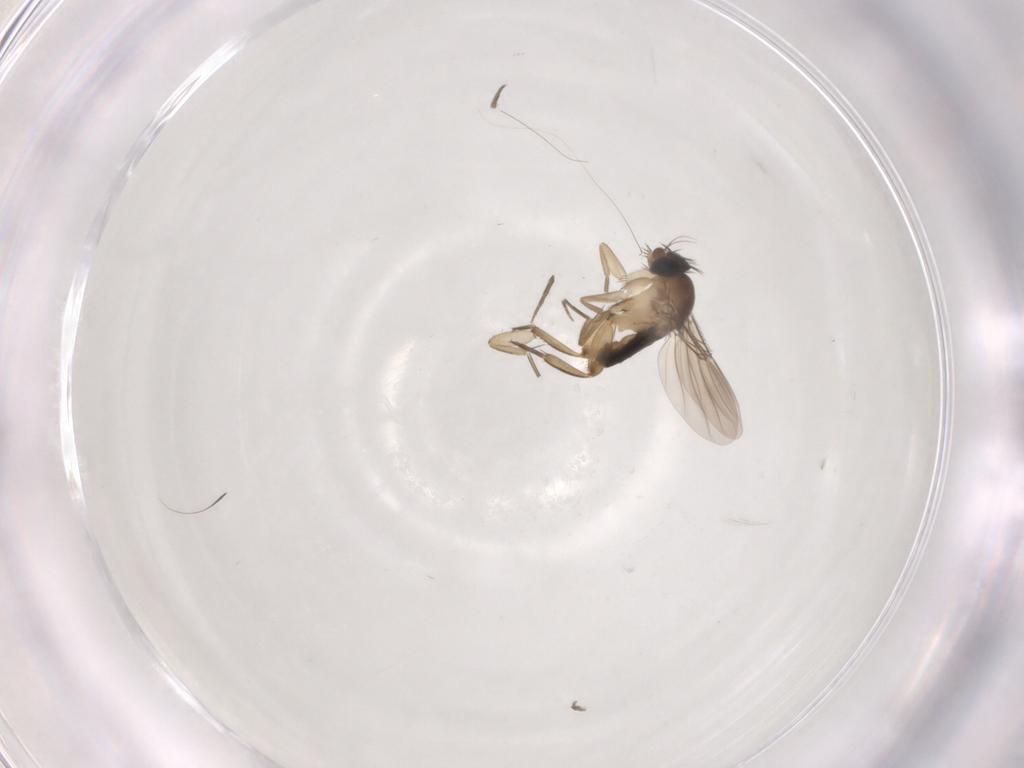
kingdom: Animalia
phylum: Arthropoda
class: Insecta
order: Diptera
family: Phoridae
